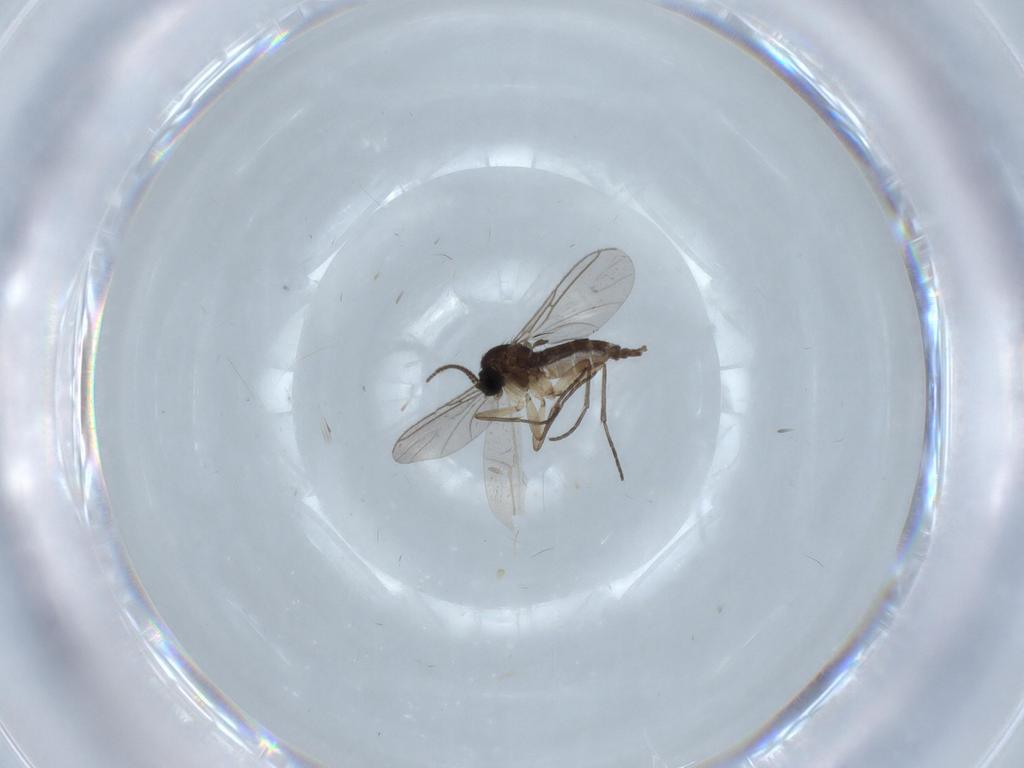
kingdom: Animalia
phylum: Arthropoda
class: Insecta
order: Diptera
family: Sciaridae
